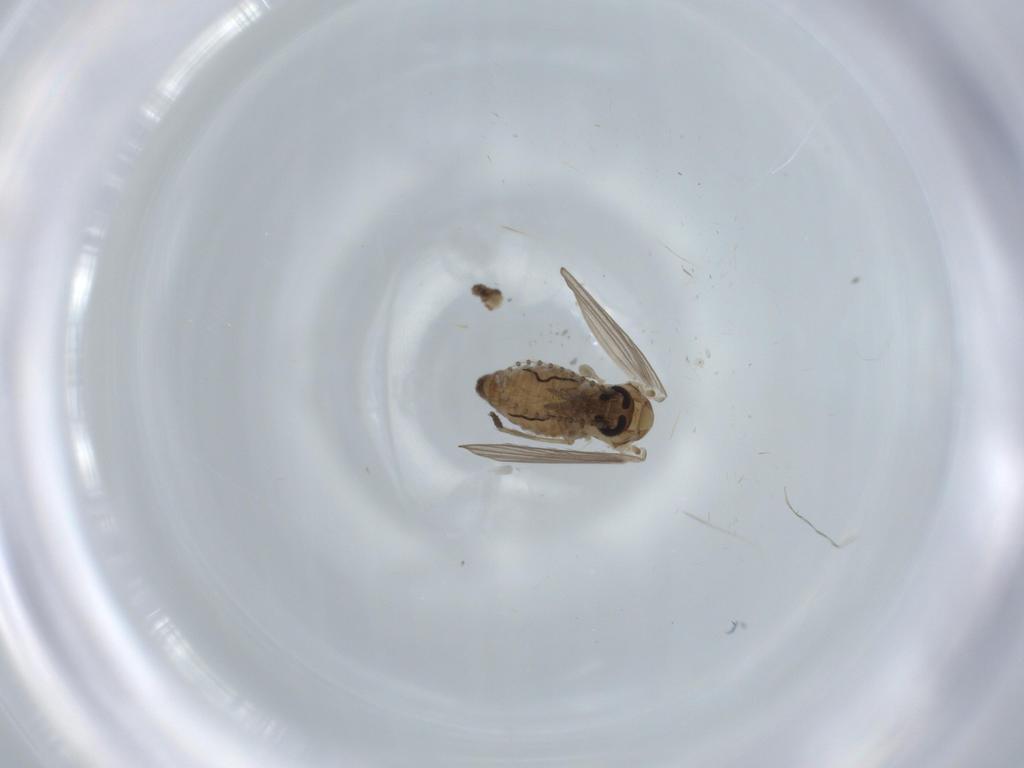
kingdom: Animalia
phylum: Arthropoda
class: Insecta
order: Diptera
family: Psychodidae
